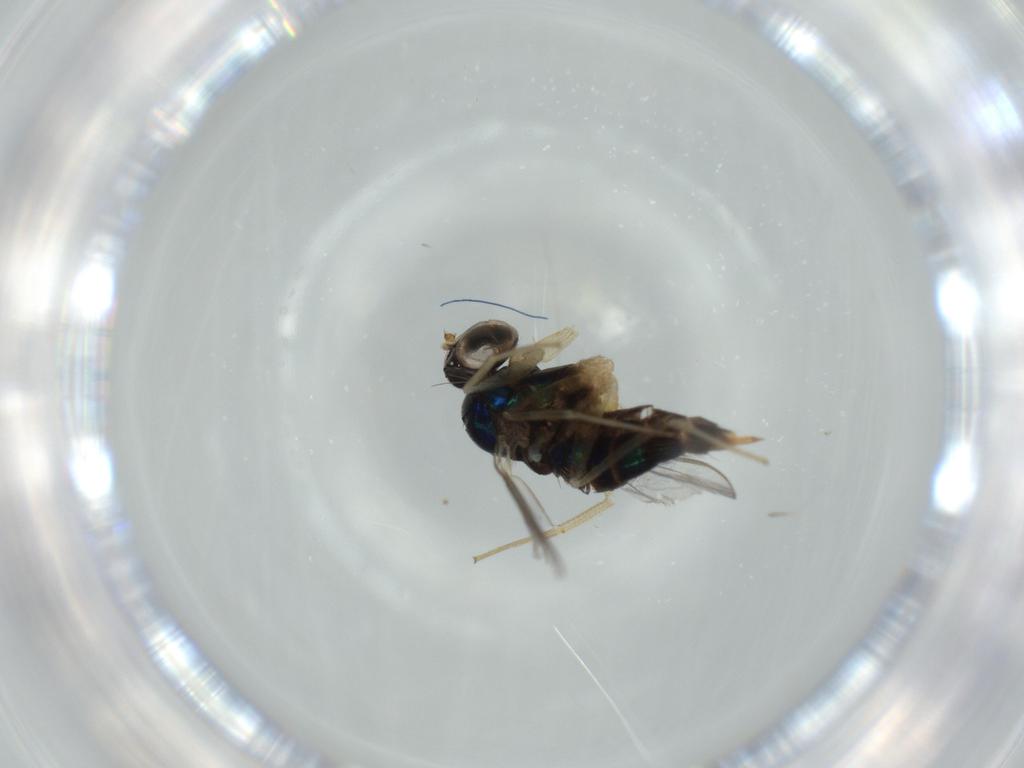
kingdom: Animalia
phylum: Arthropoda
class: Insecta
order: Diptera
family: Dolichopodidae
